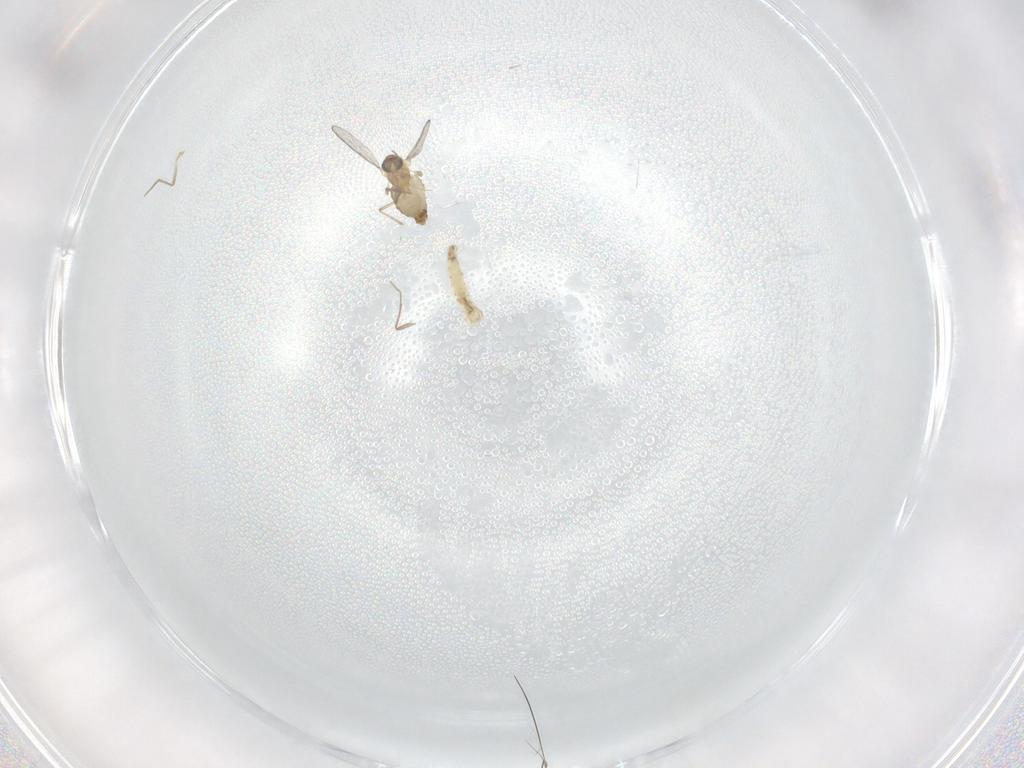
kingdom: Animalia
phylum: Arthropoda
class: Insecta
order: Diptera
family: Chironomidae
